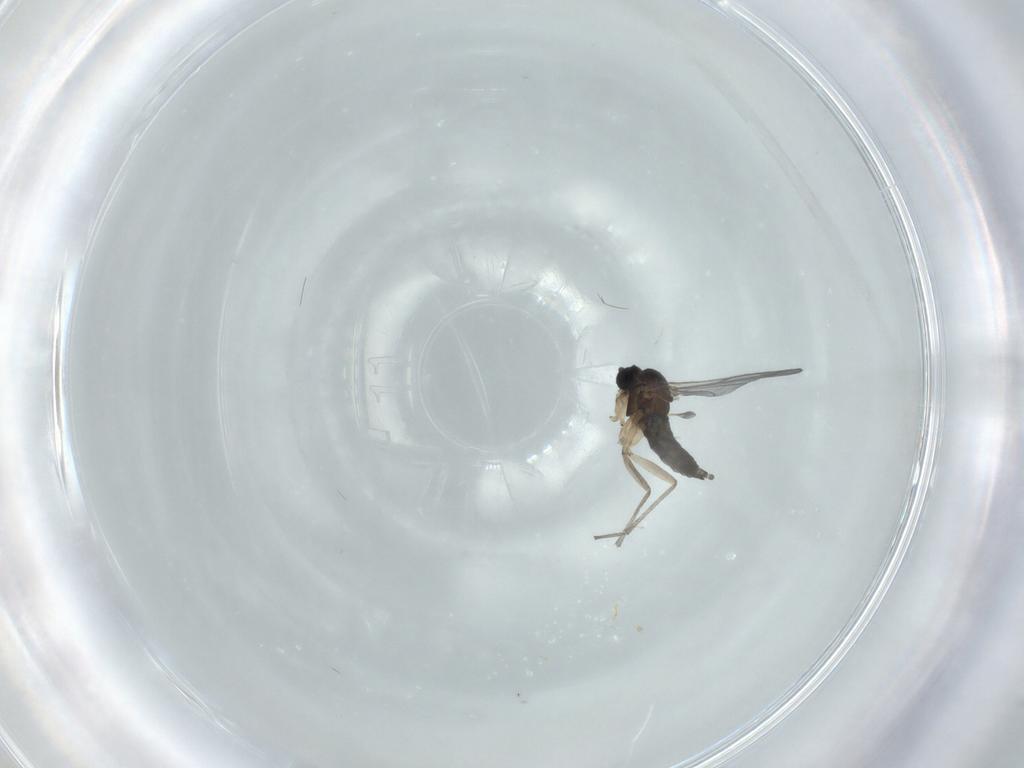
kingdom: Animalia
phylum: Arthropoda
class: Insecta
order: Diptera
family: Sciaridae
